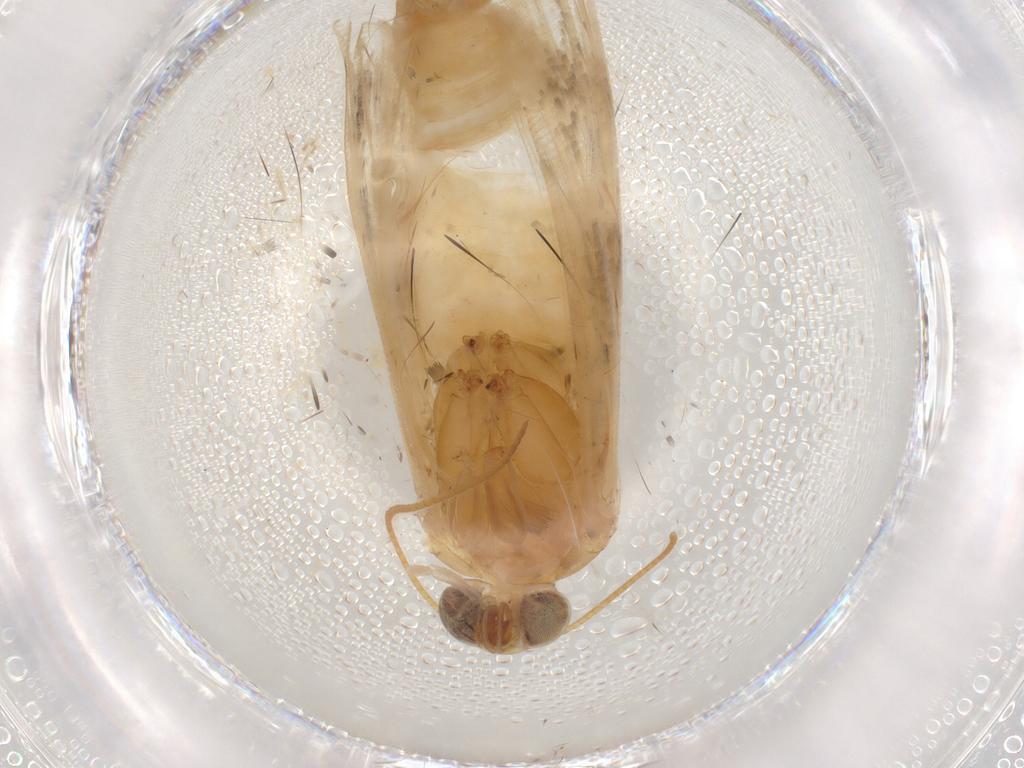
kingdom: Animalia
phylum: Arthropoda
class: Insecta
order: Lepidoptera
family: Noctuidae
